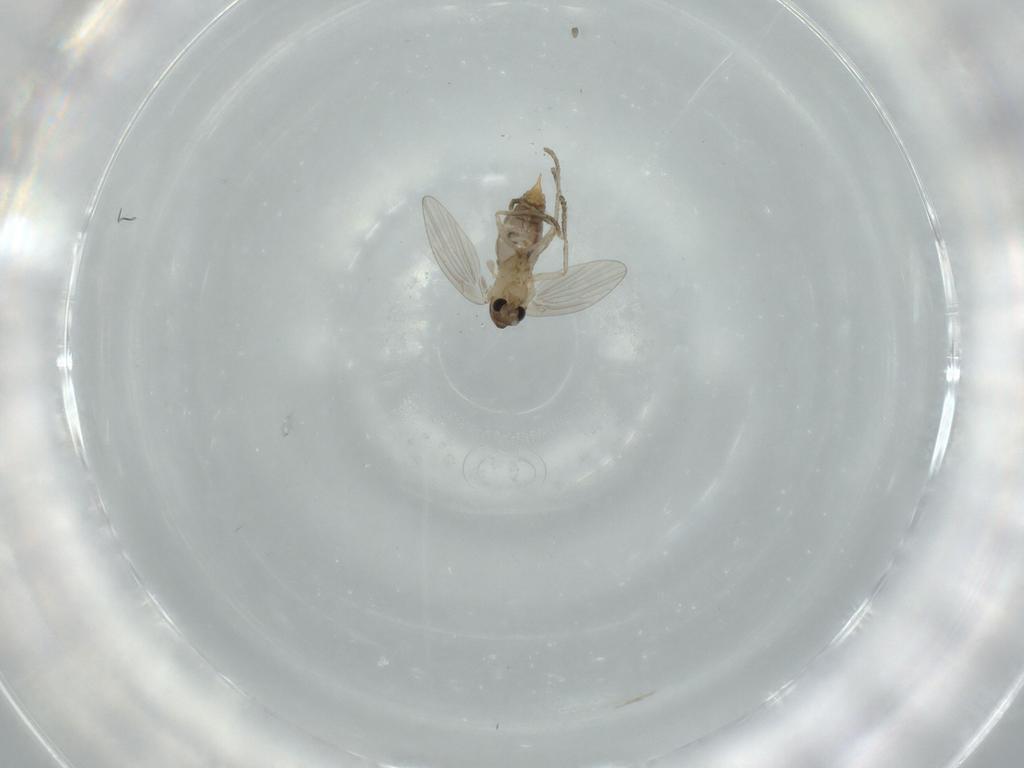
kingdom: Animalia
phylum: Arthropoda
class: Insecta
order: Diptera
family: Psychodidae
